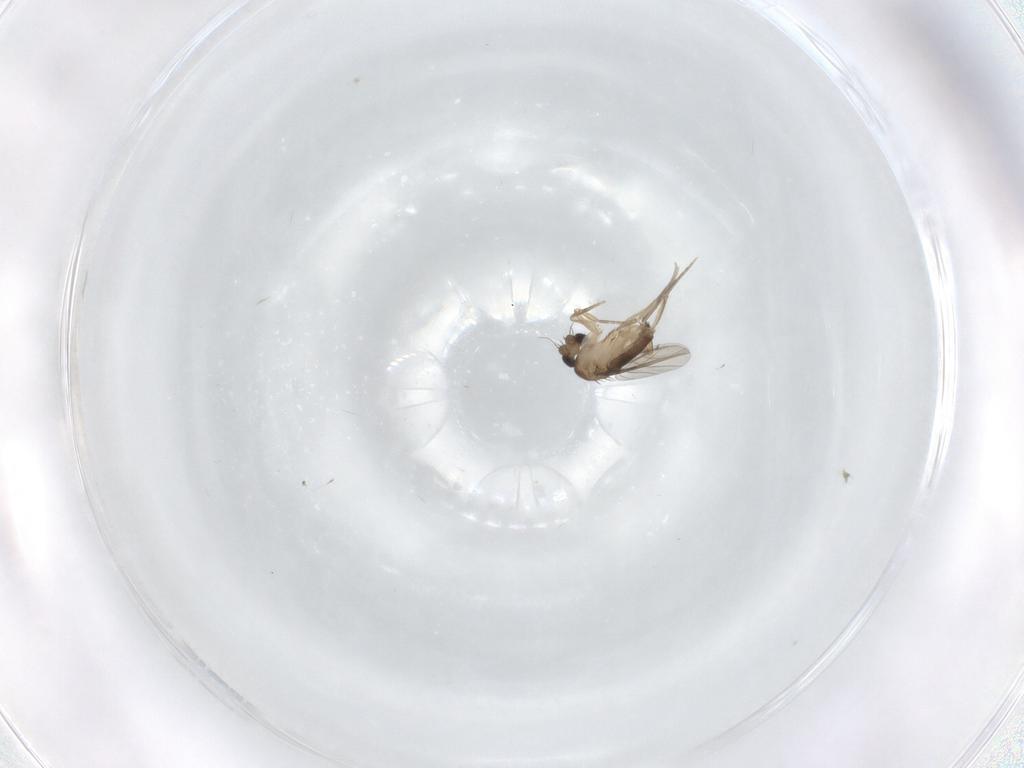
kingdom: Animalia
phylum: Arthropoda
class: Insecta
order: Diptera
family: Phoridae
